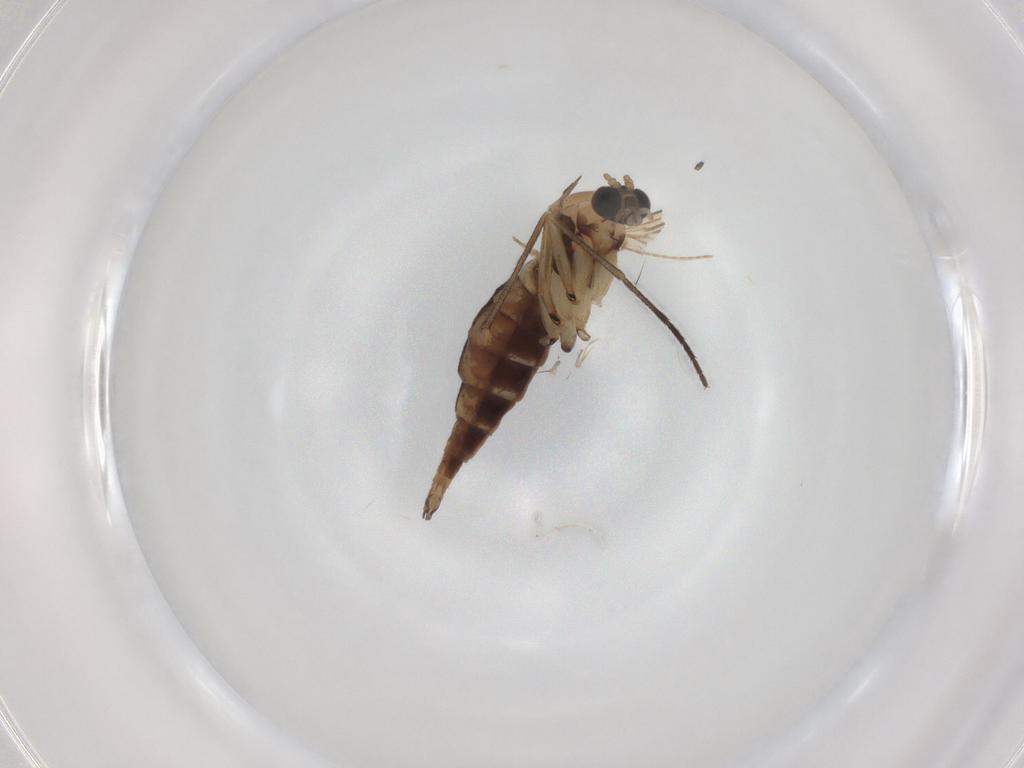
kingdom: Animalia
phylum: Arthropoda
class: Insecta
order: Diptera
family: Sciaridae
